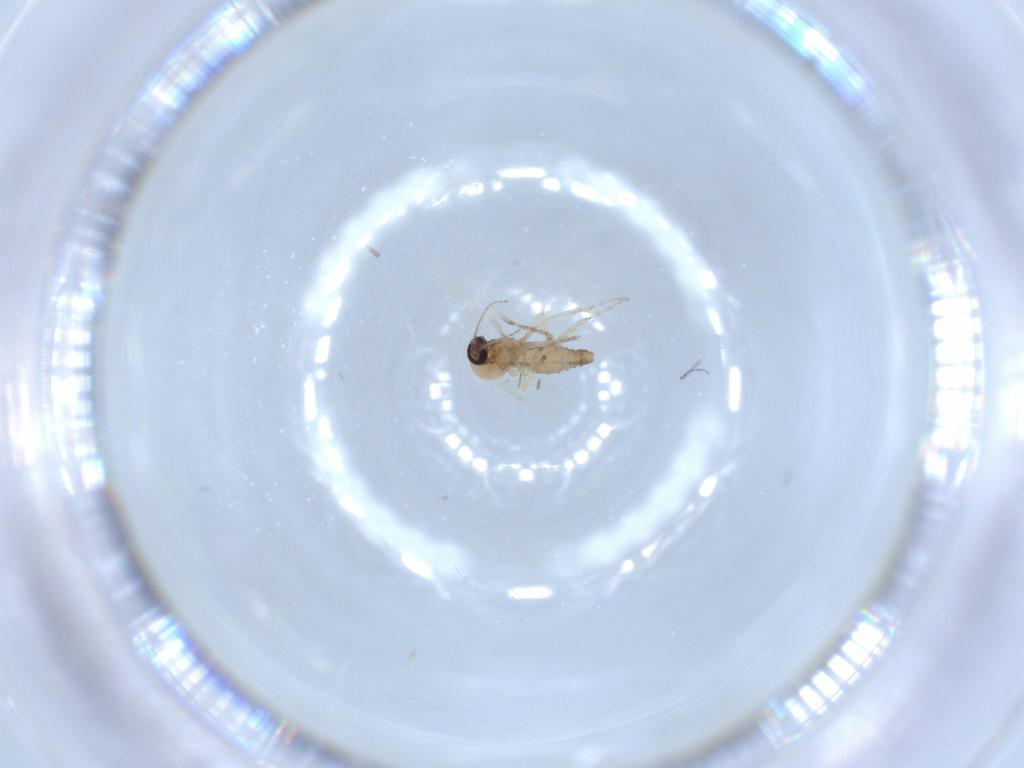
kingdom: Animalia
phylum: Arthropoda
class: Insecta
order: Diptera
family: Ceratopogonidae
